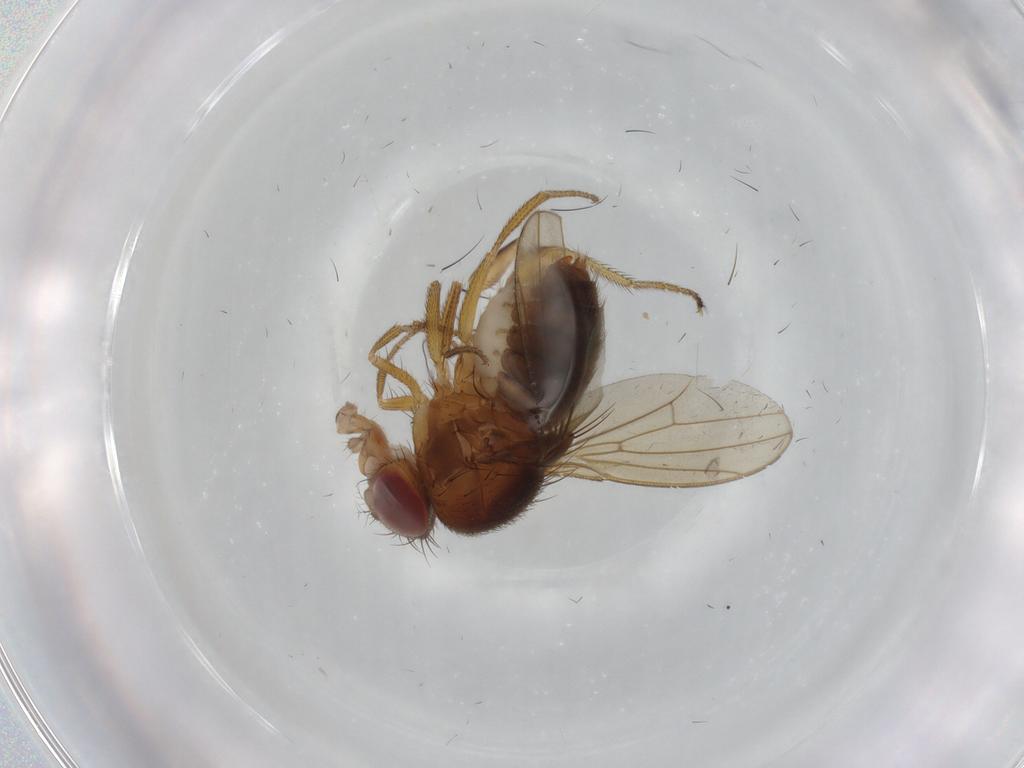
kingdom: Animalia
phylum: Arthropoda
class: Insecta
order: Diptera
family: Drosophilidae
